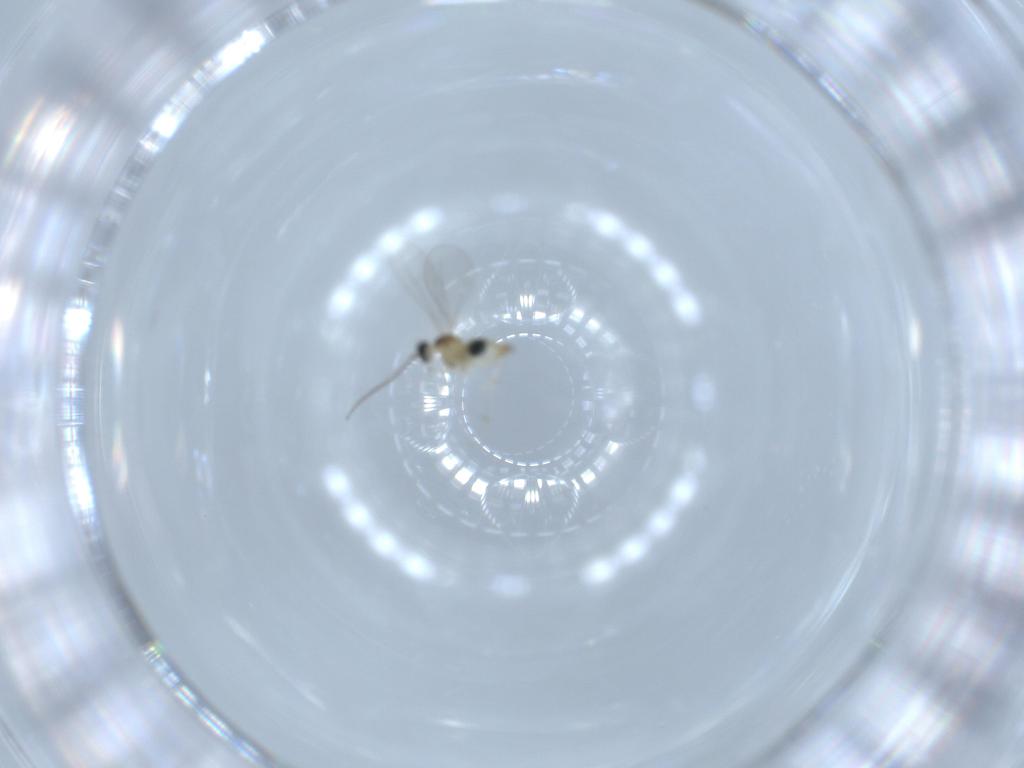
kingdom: Animalia
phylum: Arthropoda
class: Insecta
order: Diptera
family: Cecidomyiidae
